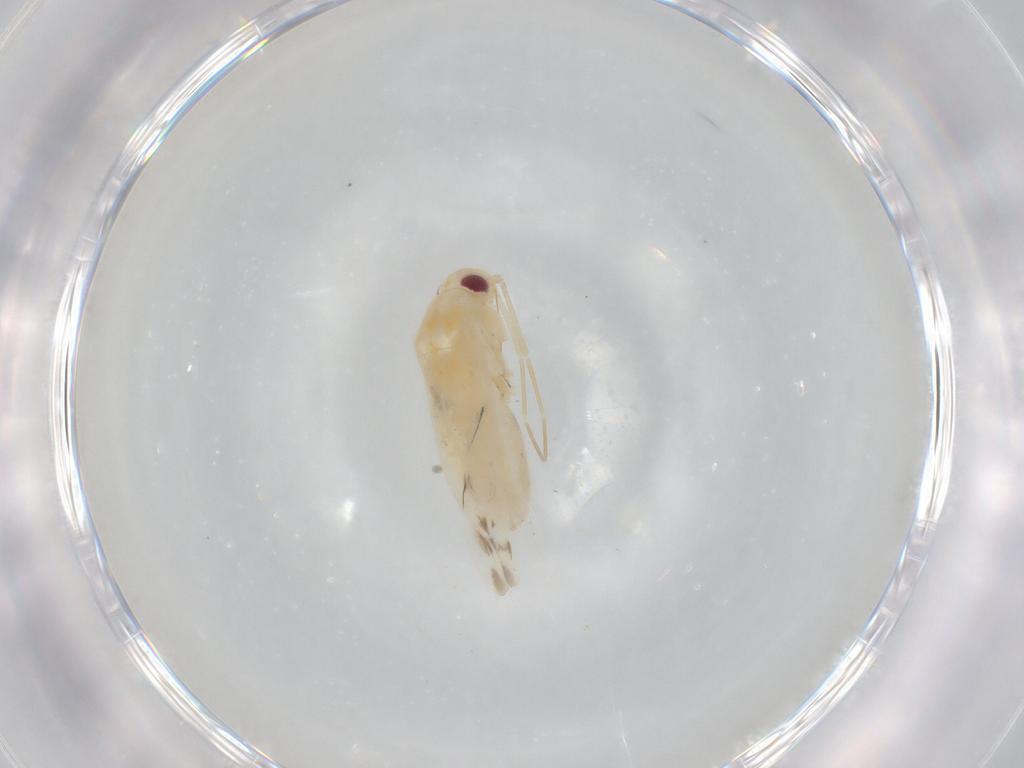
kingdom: Animalia
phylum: Arthropoda
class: Insecta
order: Hemiptera
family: Miridae
